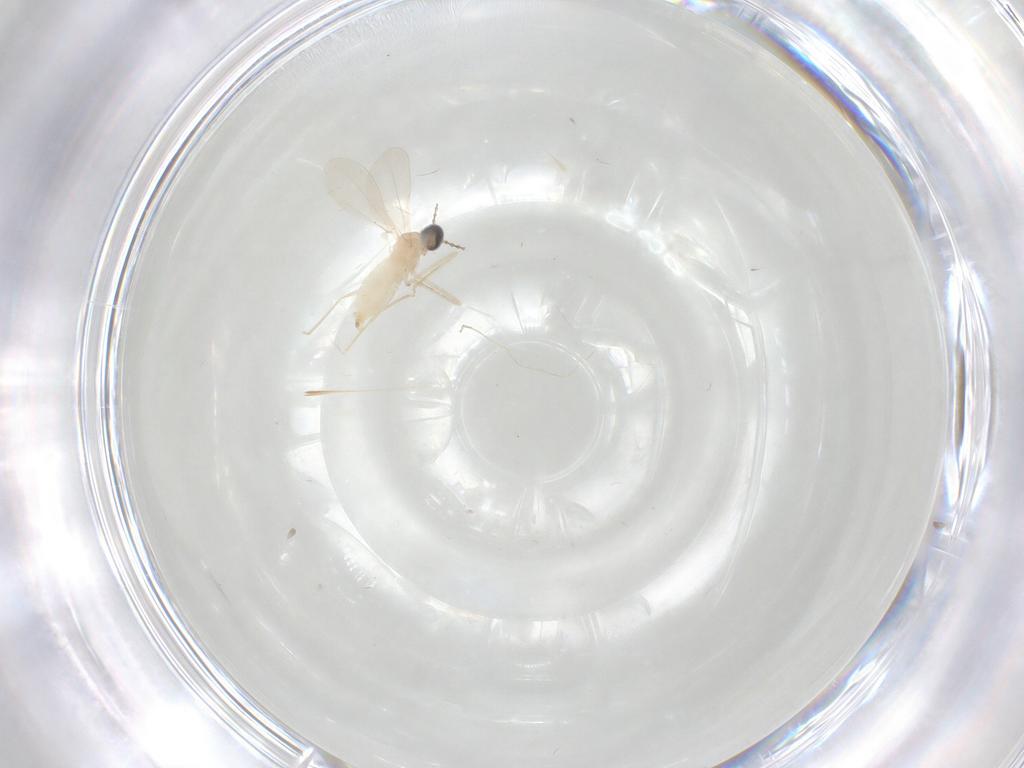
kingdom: Animalia
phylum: Arthropoda
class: Insecta
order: Diptera
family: Cecidomyiidae
